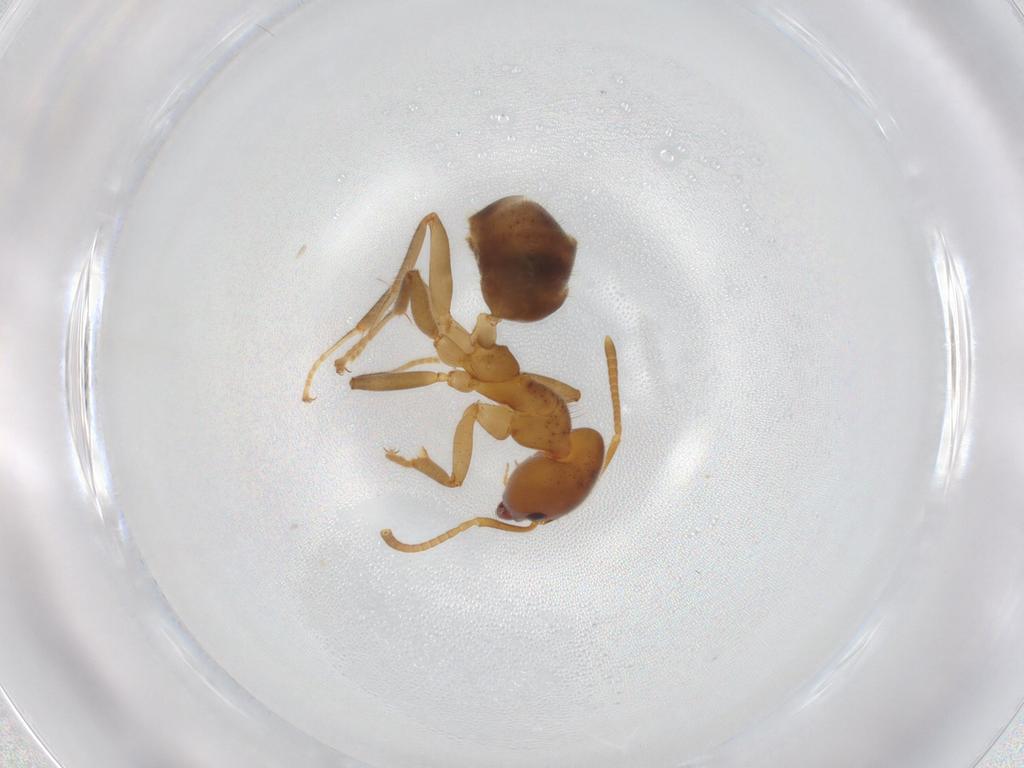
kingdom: Animalia
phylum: Arthropoda
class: Insecta
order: Hymenoptera
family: Formicidae
